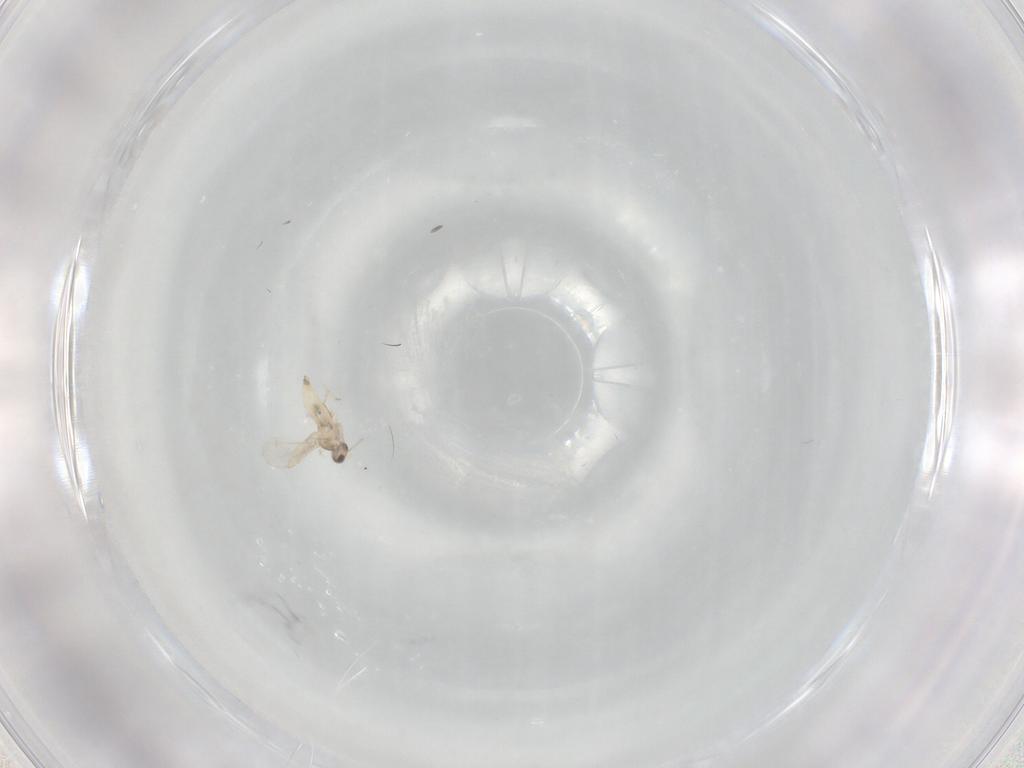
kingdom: Animalia
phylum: Arthropoda
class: Insecta
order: Diptera
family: Cecidomyiidae
